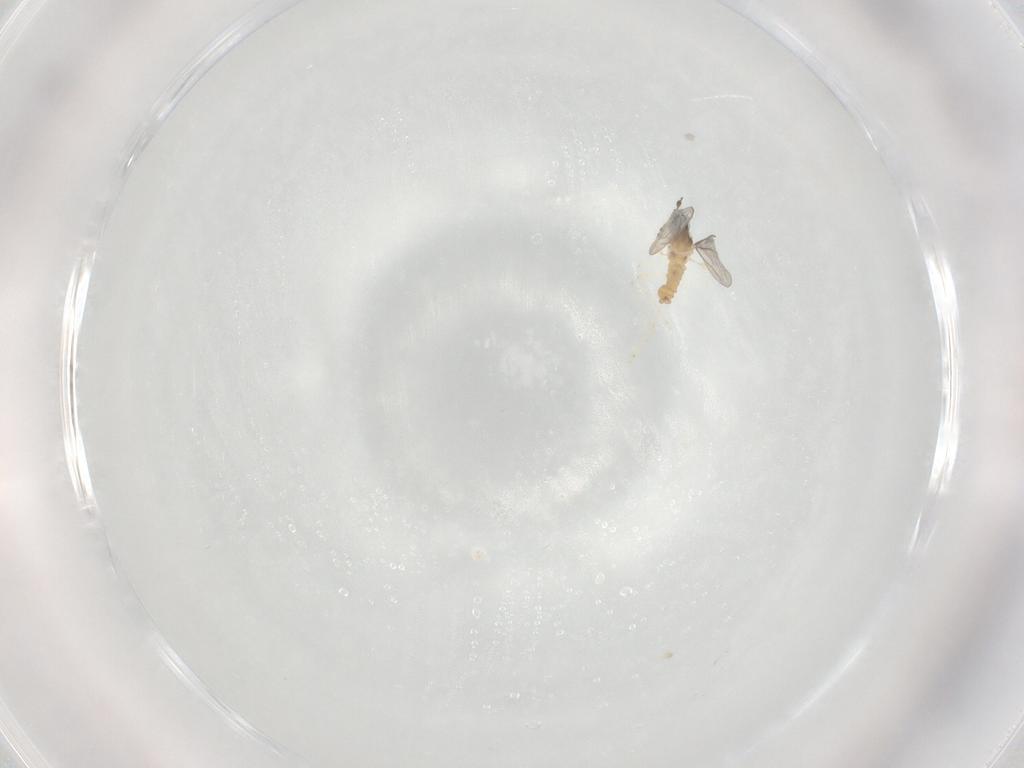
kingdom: Animalia
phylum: Arthropoda
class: Insecta
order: Diptera
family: Cecidomyiidae
